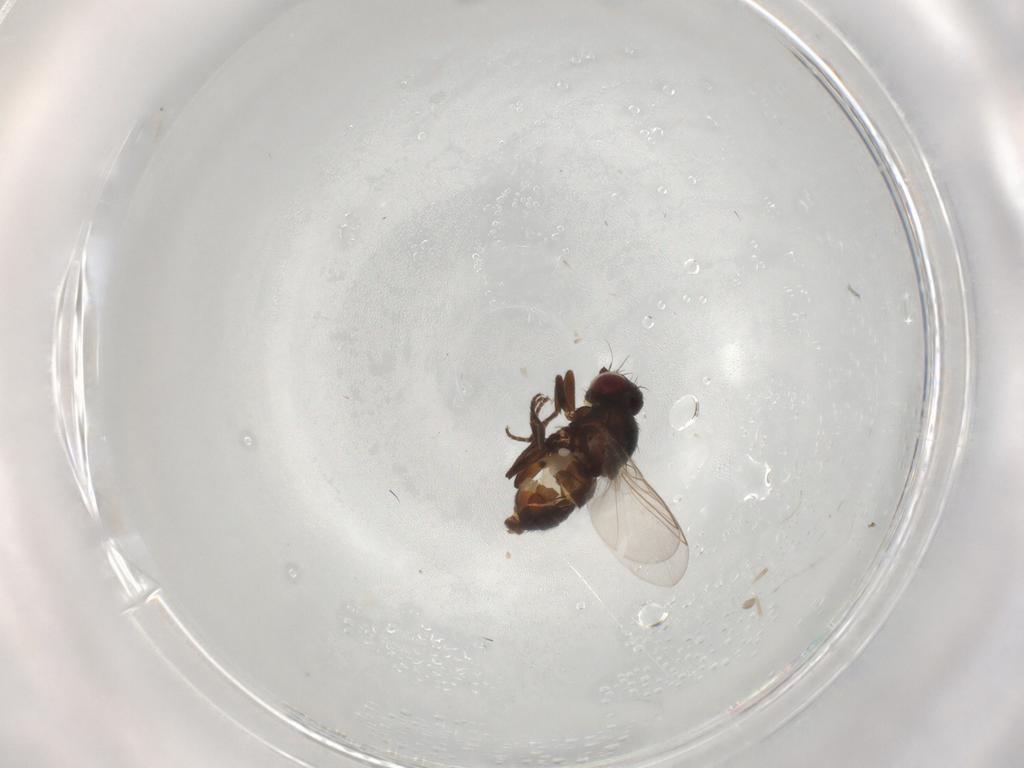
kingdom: Animalia
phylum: Arthropoda
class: Insecta
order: Diptera
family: Agromyzidae
